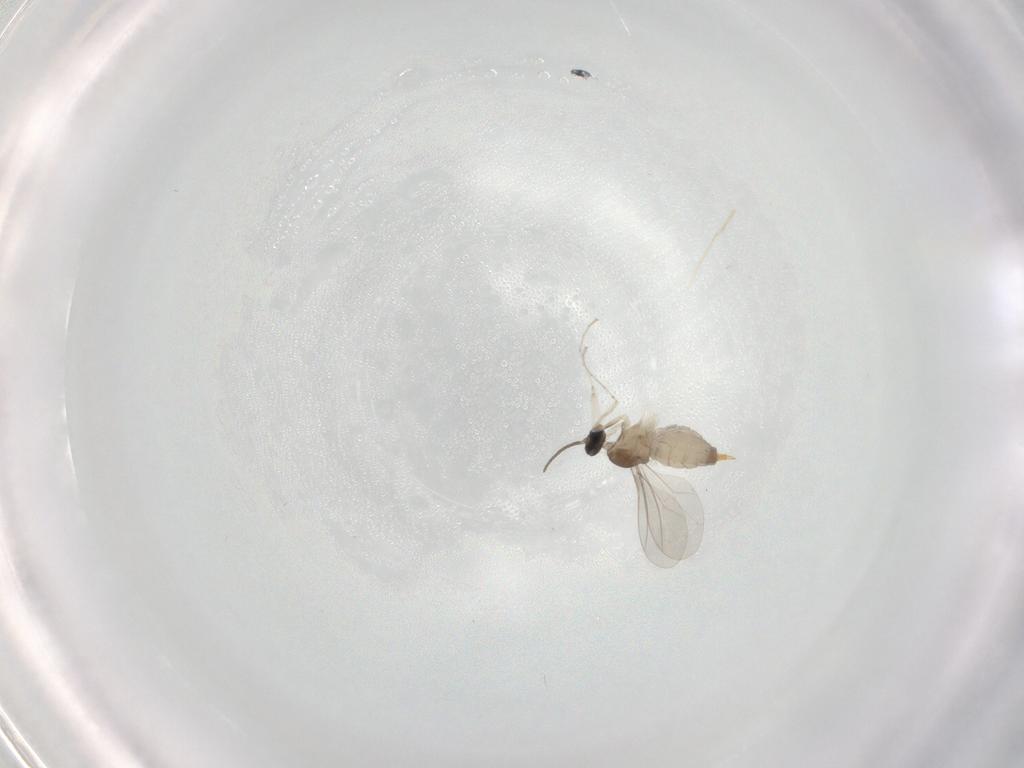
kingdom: Animalia
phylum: Arthropoda
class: Insecta
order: Diptera
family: Cecidomyiidae
